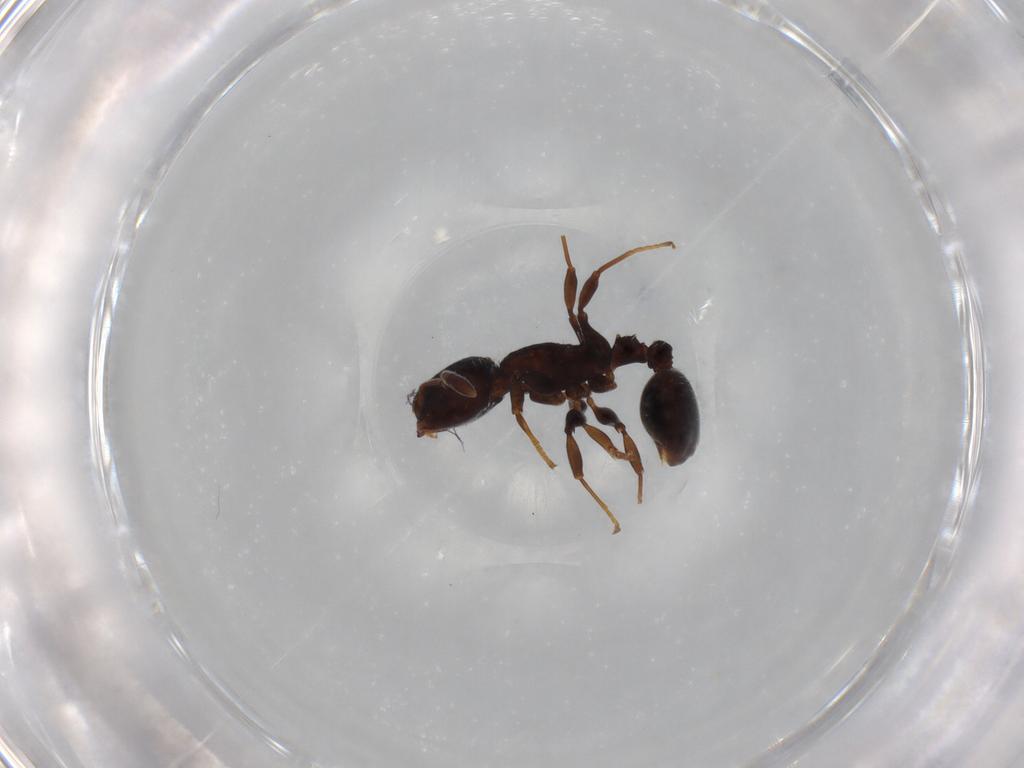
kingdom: Animalia
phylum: Arthropoda
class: Insecta
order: Hymenoptera
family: Formicidae
